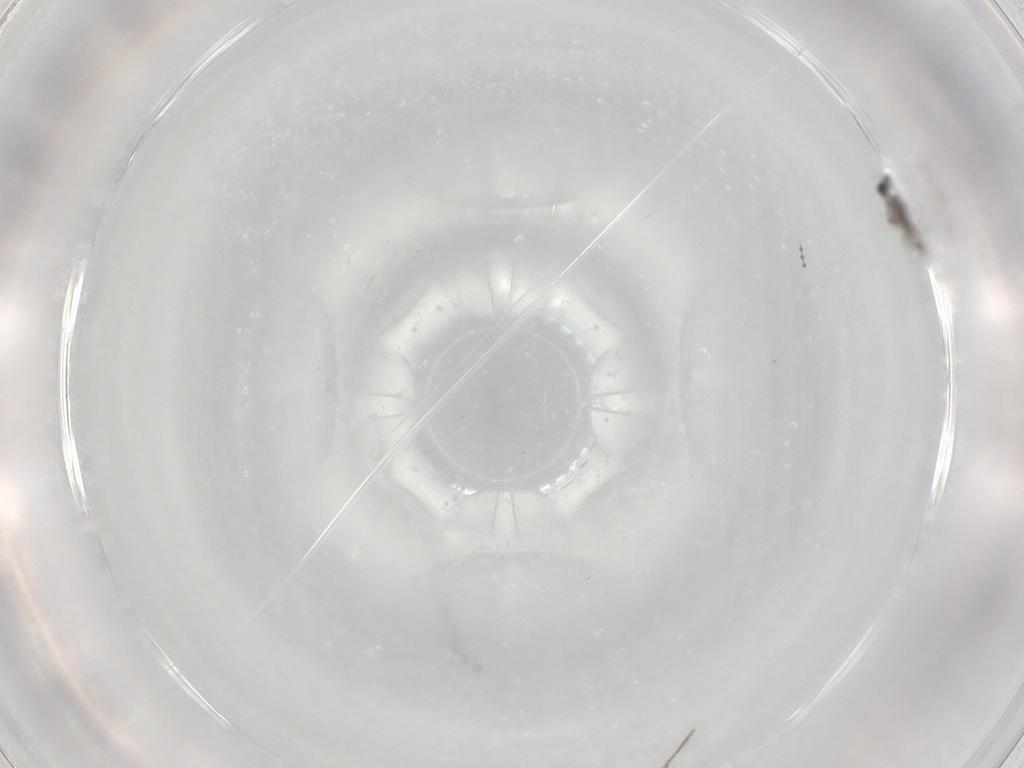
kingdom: Animalia
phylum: Arthropoda
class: Insecta
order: Diptera
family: Cecidomyiidae
